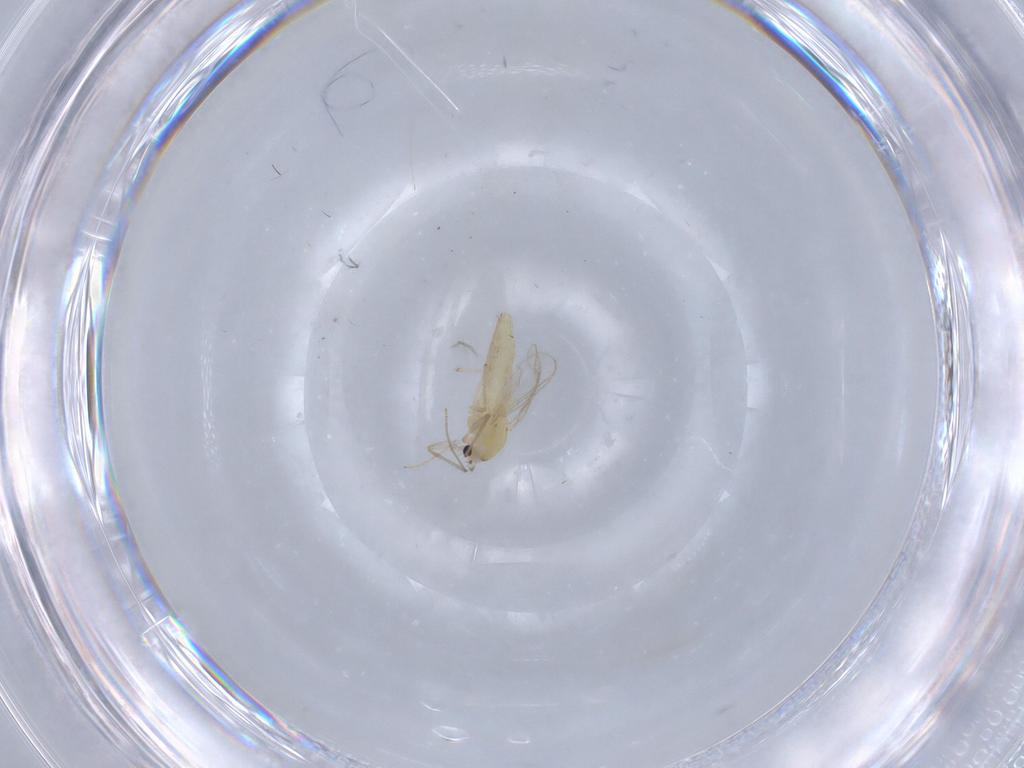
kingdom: Animalia
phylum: Arthropoda
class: Insecta
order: Diptera
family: Chironomidae
